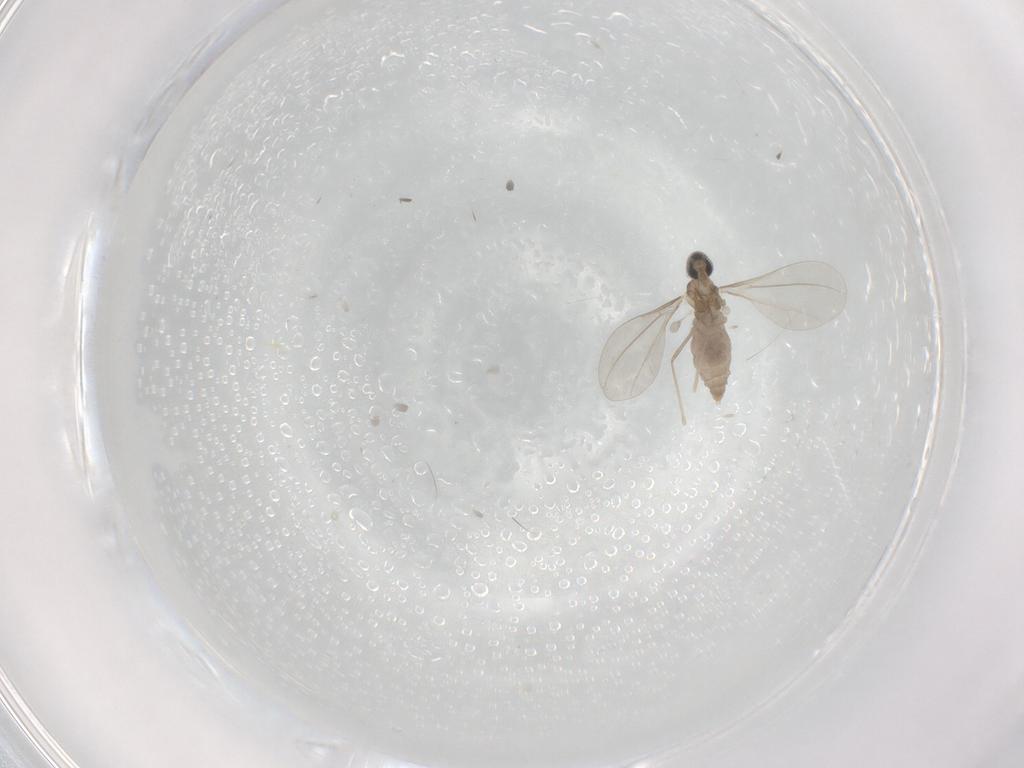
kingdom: Animalia
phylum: Arthropoda
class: Insecta
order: Diptera
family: Cecidomyiidae
